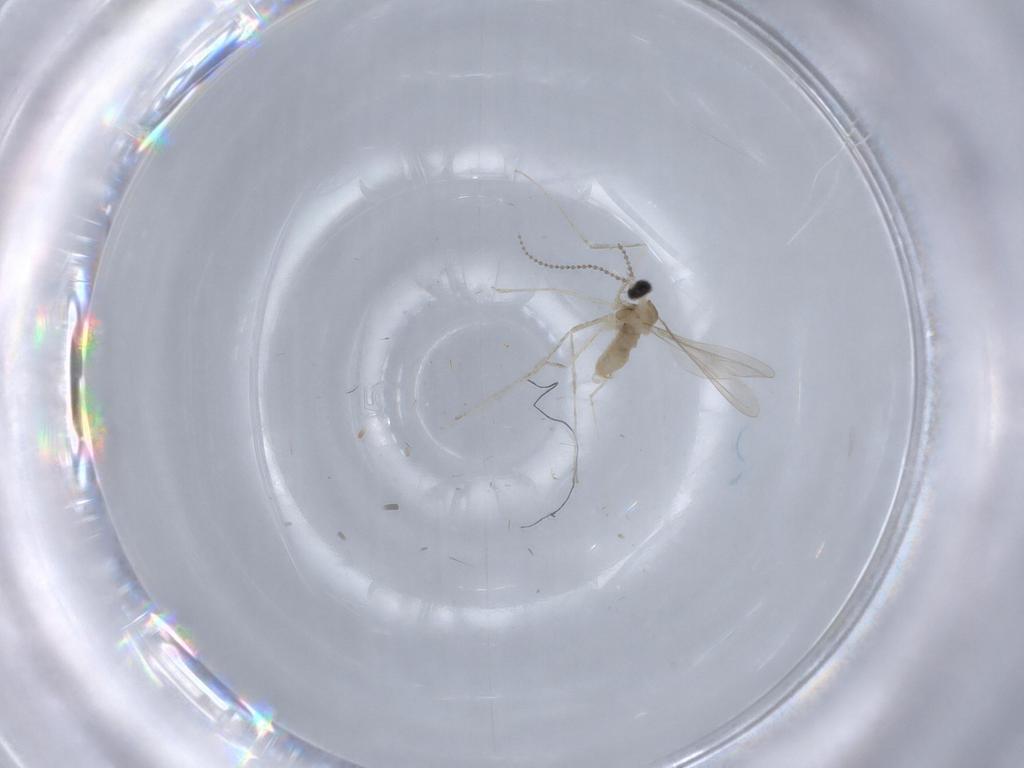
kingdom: Animalia
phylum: Arthropoda
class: Insecta
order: Diptera
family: Cecidomyiidae
